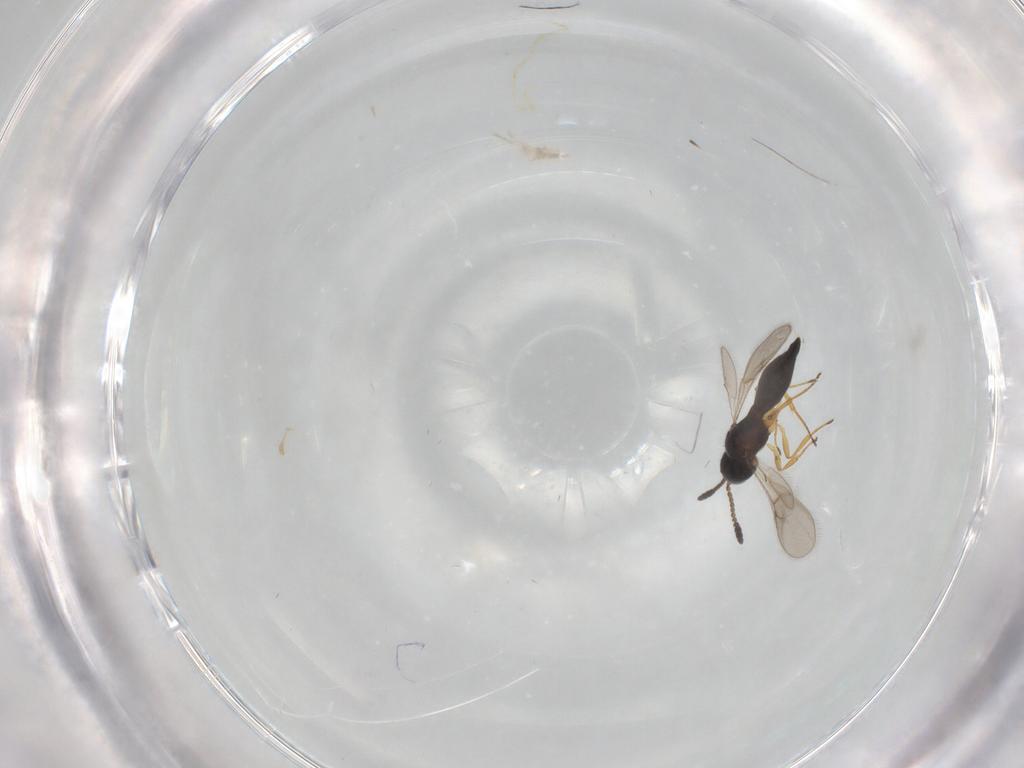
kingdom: Animalia
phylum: Arthropoda
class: Insecta
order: Hymenoptera
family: Scelionidae
